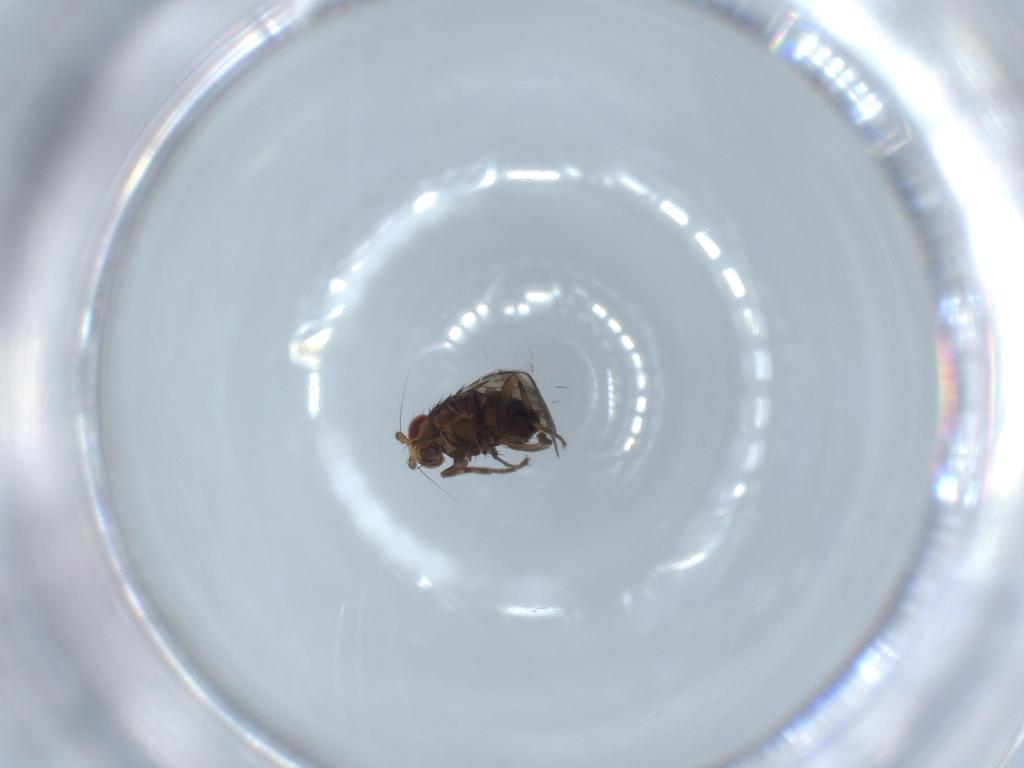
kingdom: Animalia
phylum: Arthropoda
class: Insecta
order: Diptera
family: Sphaeroceridae
